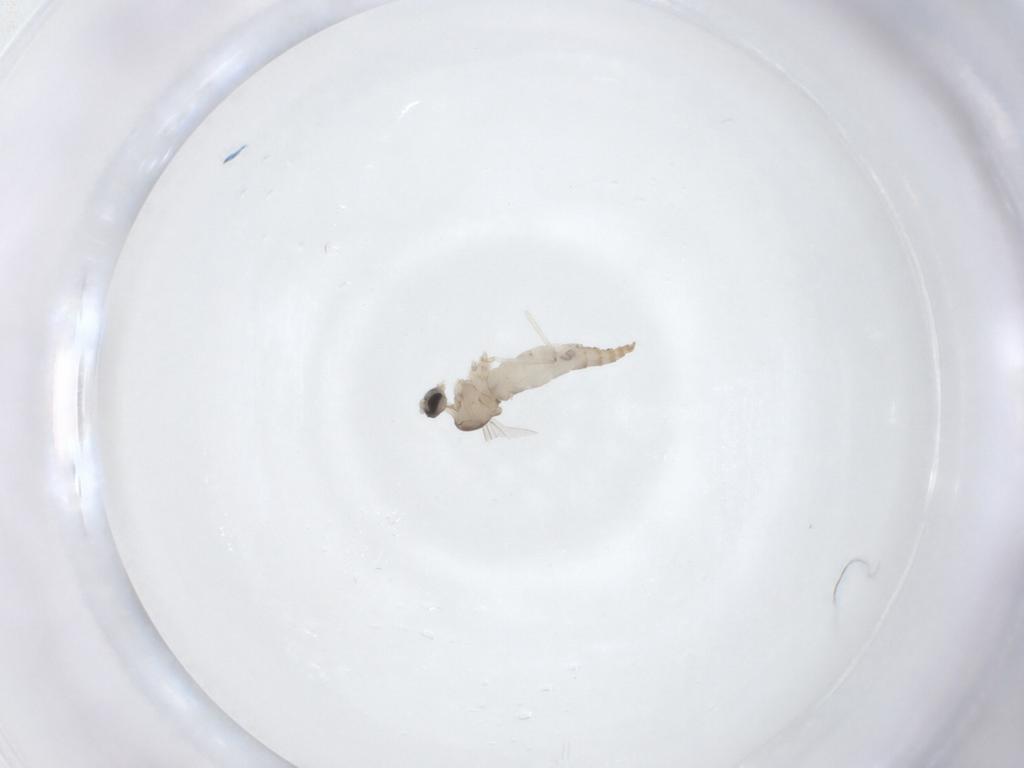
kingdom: Animalia
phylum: Arthropoda
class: Insecta
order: Diptera
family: Cecidomyiidae
